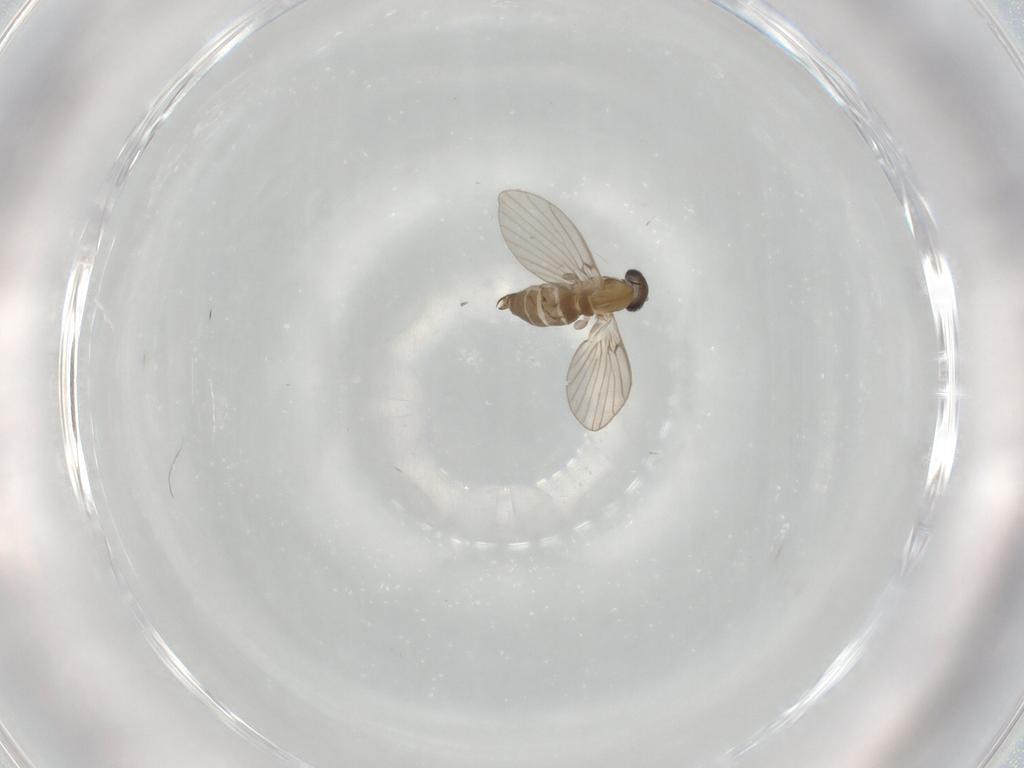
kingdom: Animalia
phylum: Arthropoda
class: Insecta
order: Diptera
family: Psychodidae
